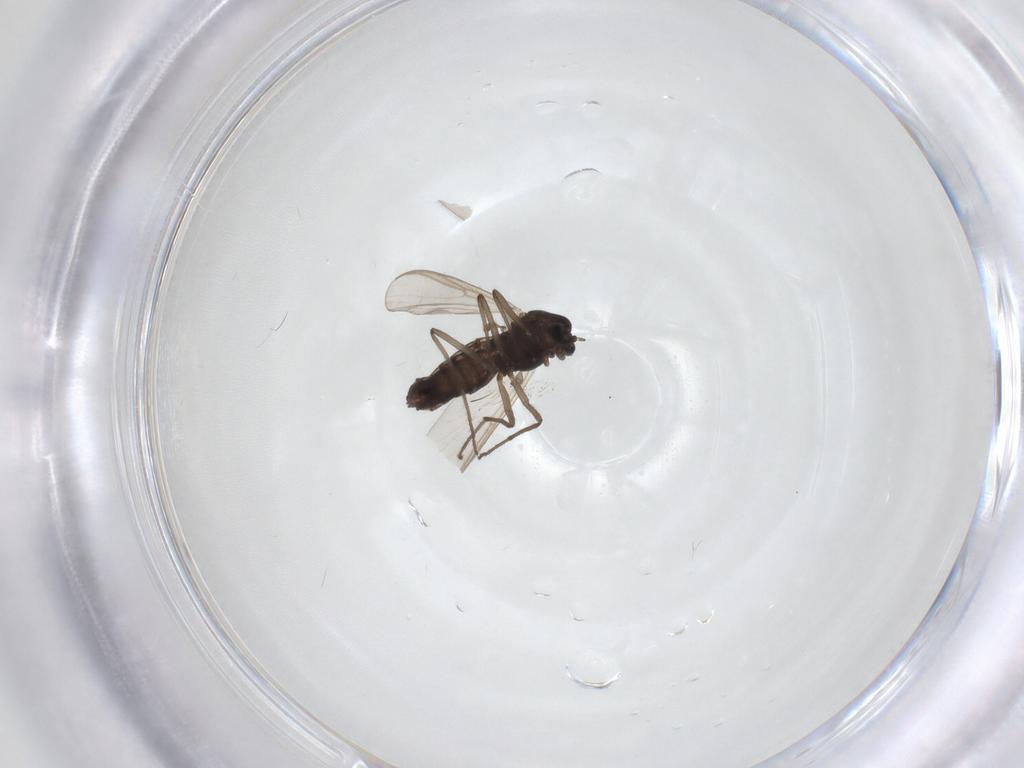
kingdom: Animalia
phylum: Arthropoda
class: Insecta
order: Diptera
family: Chironomidae
